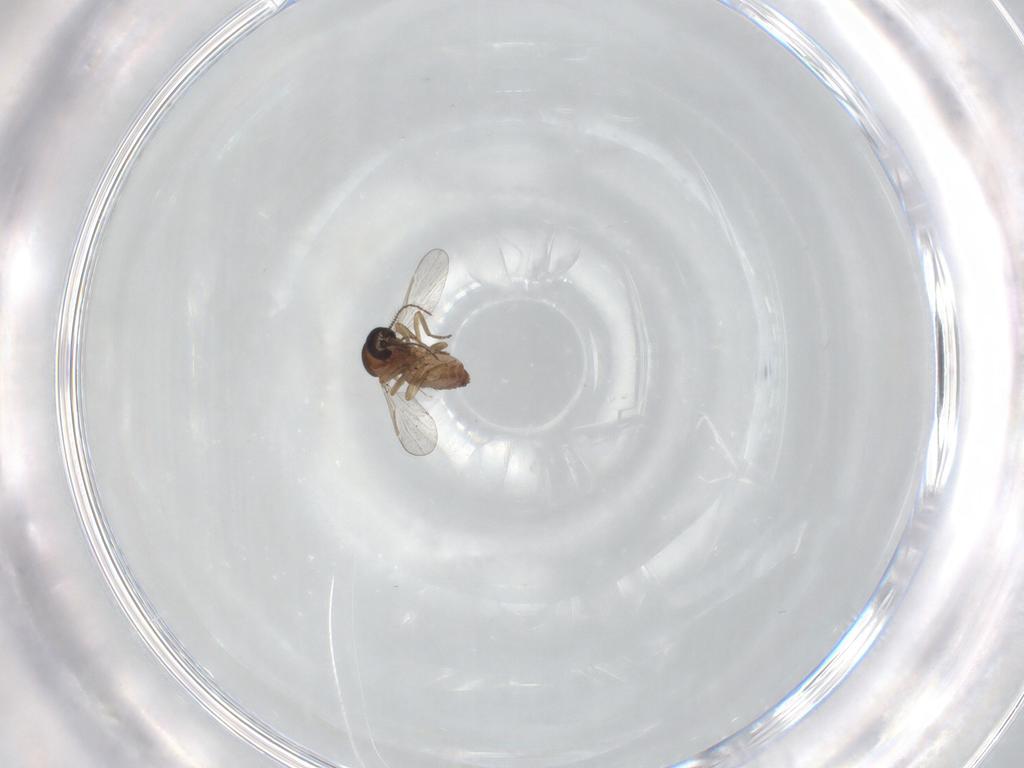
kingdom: Animalia
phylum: Arthropoda
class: Insecta
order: Diptera
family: Ceratopogonidae
